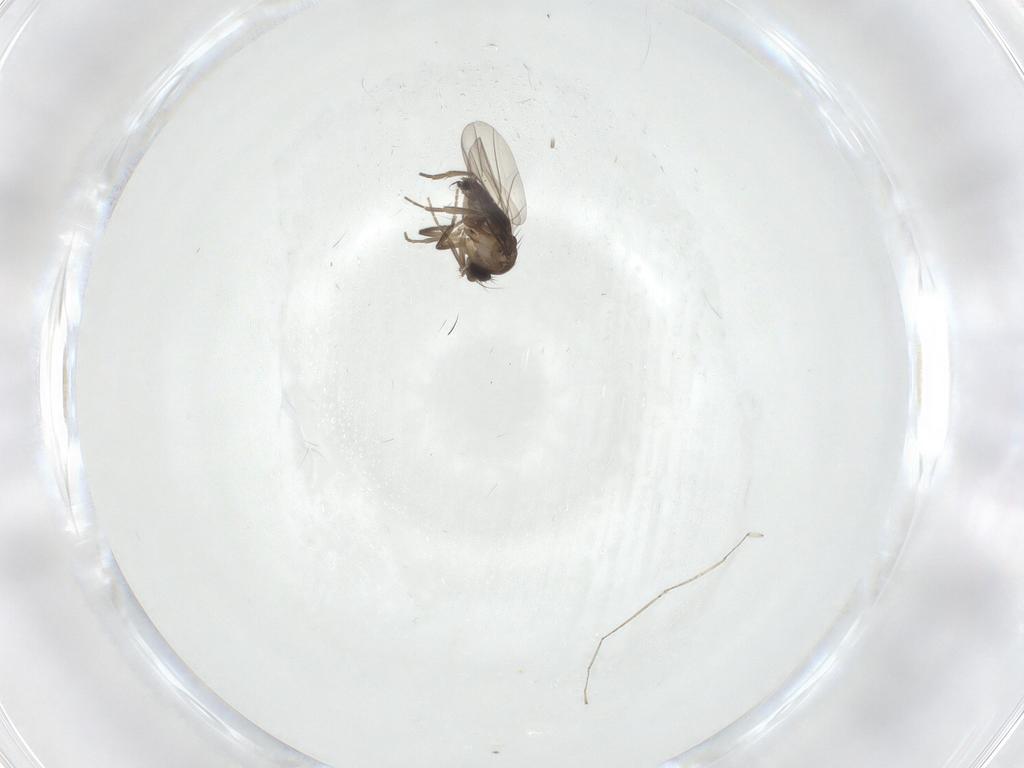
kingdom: Animalia
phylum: Arthropoda
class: Insecta
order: Diptera
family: Phoridae
